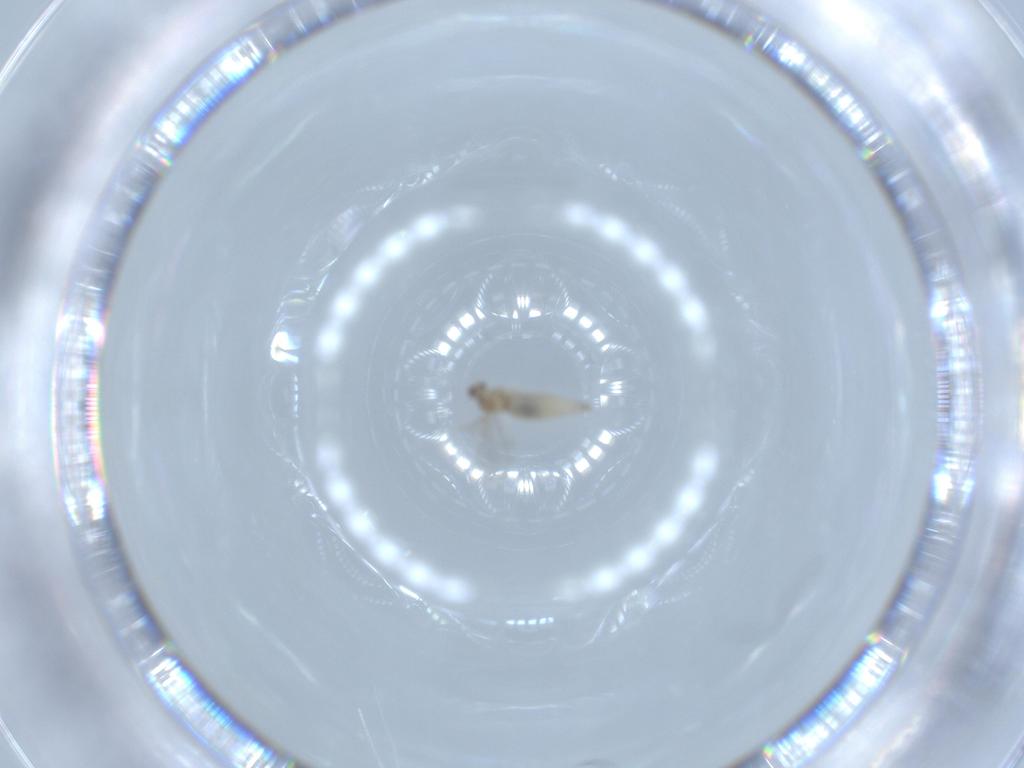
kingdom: Animalia
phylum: Arthropoda
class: Insecta
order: Diptera
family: Cecidomyiidae
